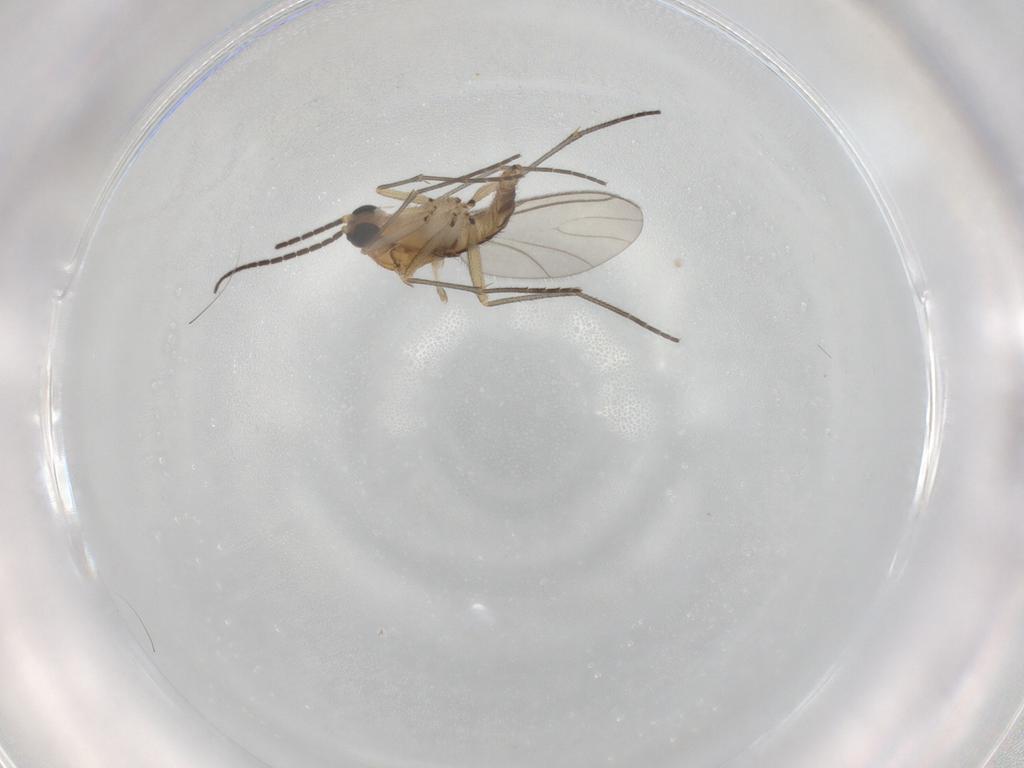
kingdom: Animalia
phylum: Arthropoda
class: Insecta
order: Diptera
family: Sciaridae
